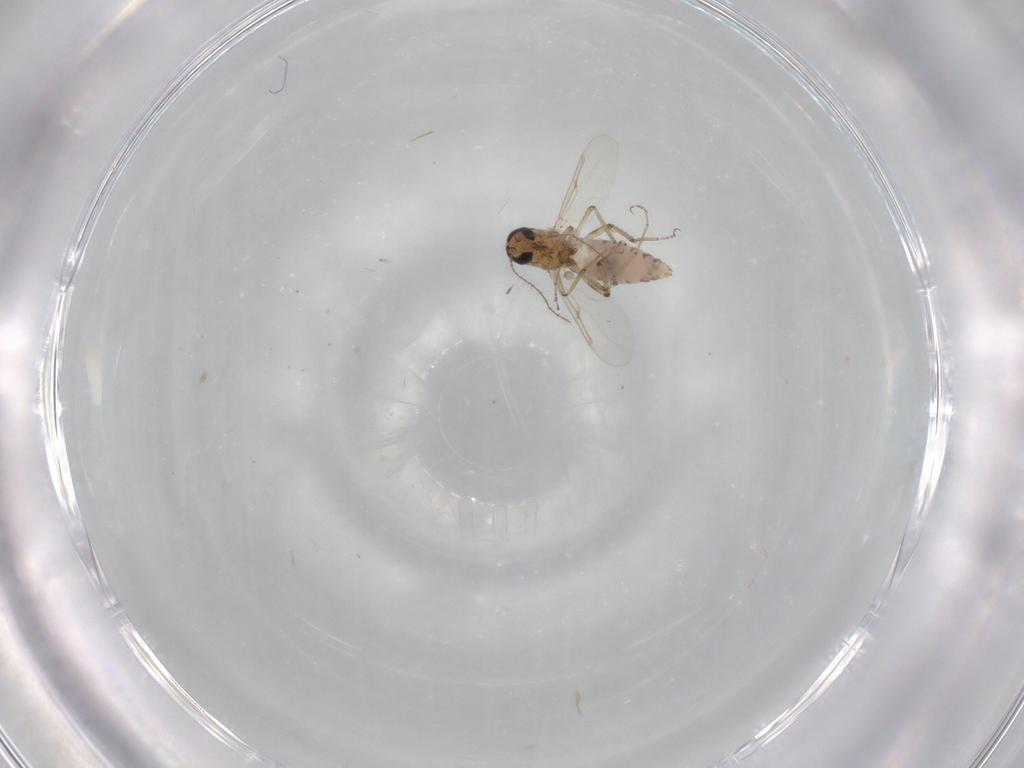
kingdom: Animalia
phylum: Arthropoda
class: Insecta
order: Diptera
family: Ceratopogonidae
